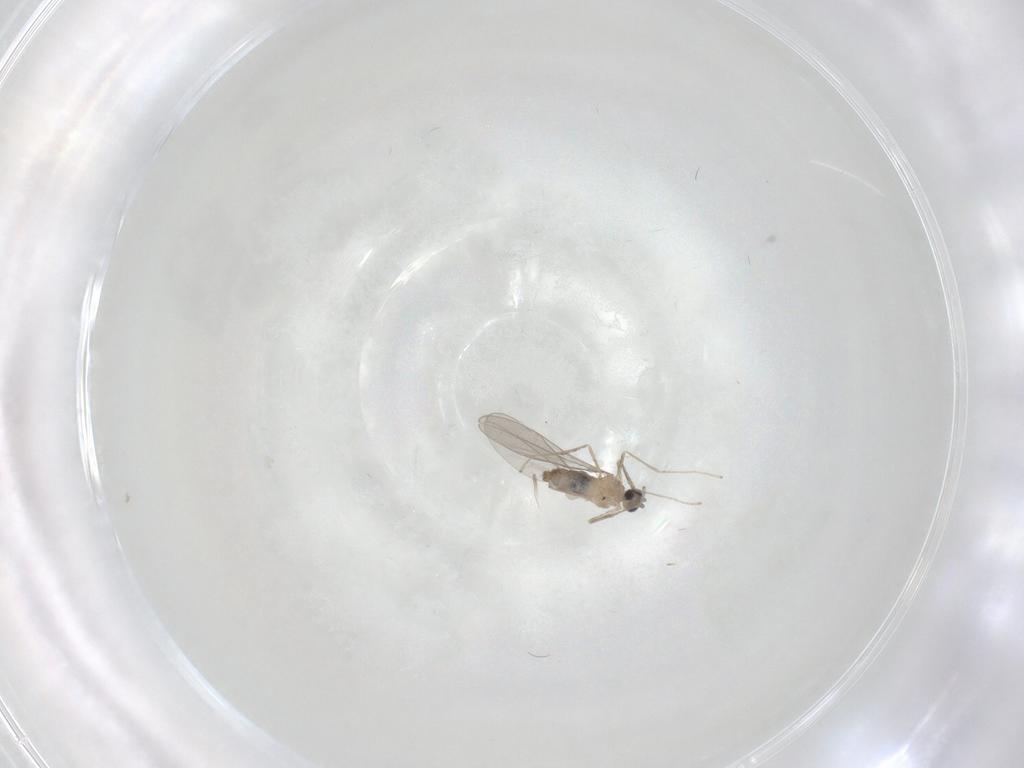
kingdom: Animalia
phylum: Arthropoda
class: Insecta
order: Diptera
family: Cecidomyiidae
